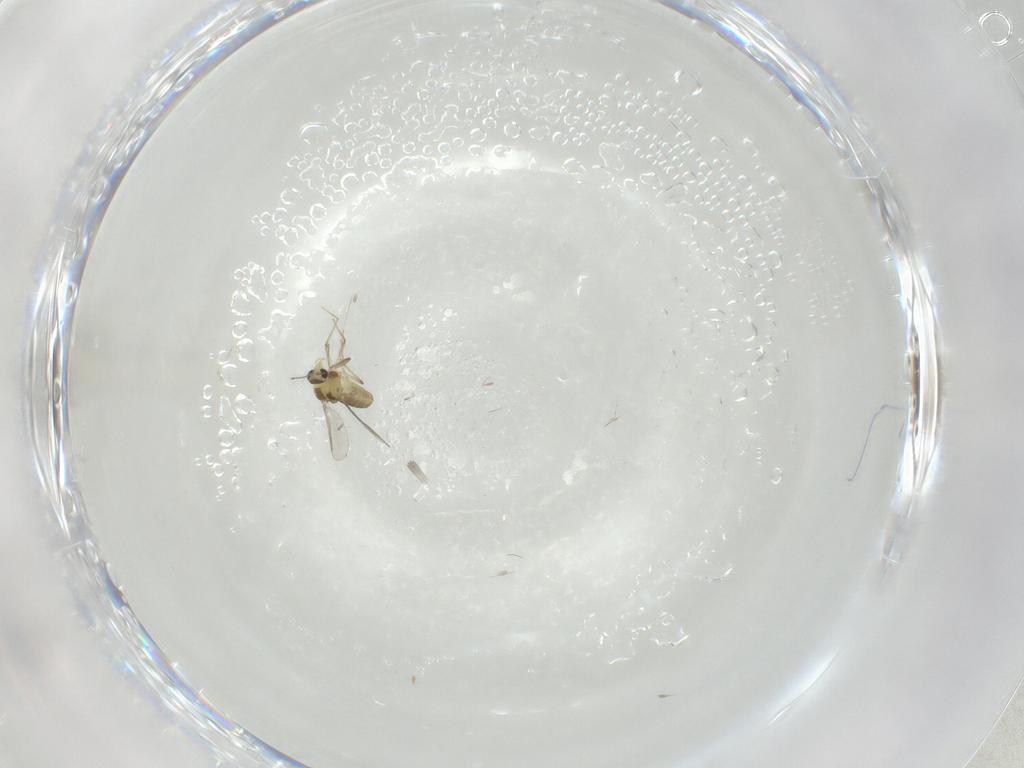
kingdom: Animalia
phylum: Arthropoda
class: Insecta
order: Diptera
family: Chironomidae
